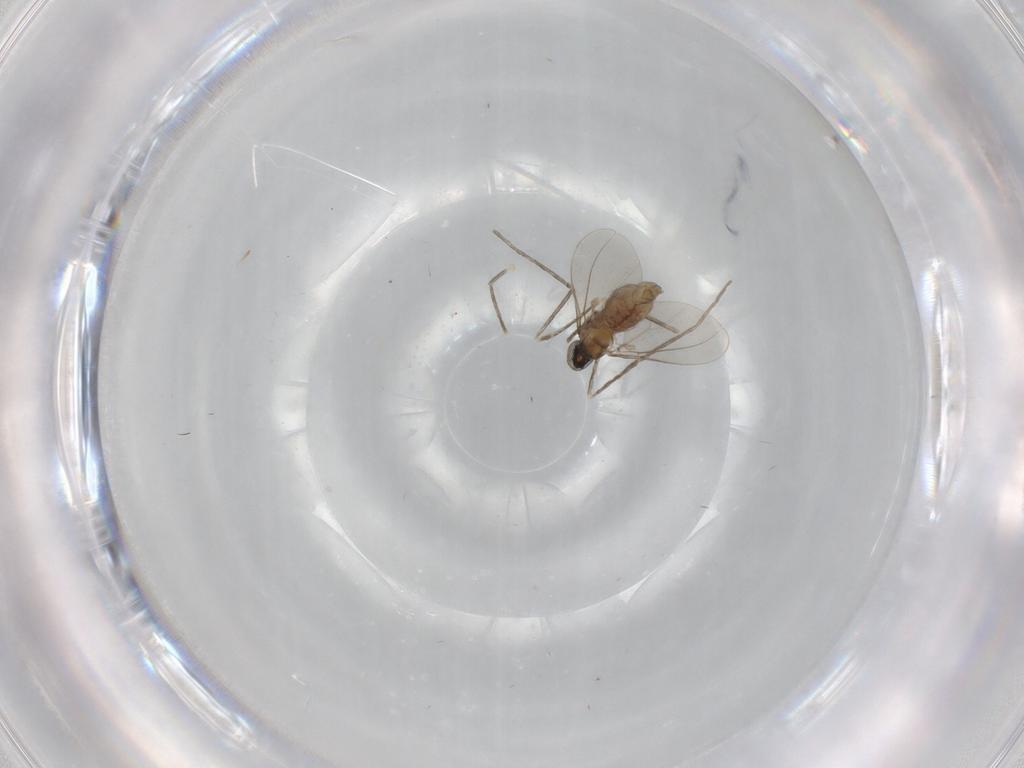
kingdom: Animalia
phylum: Arthropoda
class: Insecta
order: Diptera
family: Cecidomyiidae
